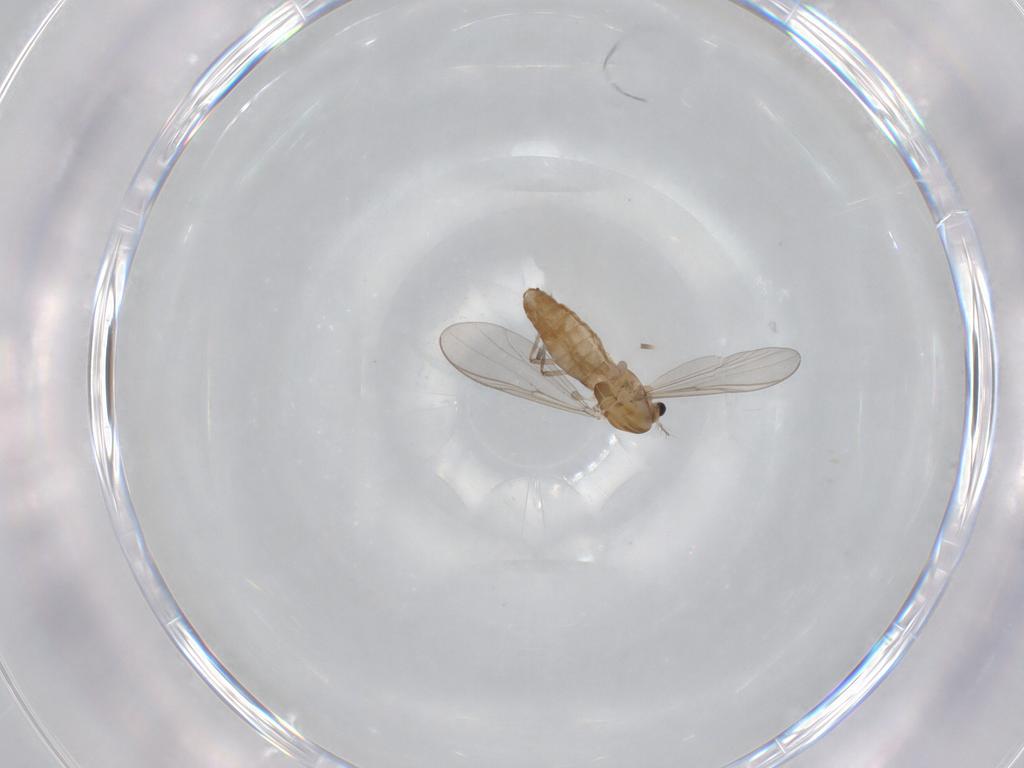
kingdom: Animalia
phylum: Arthropoda
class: Insecta
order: Diptera
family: Chironomidae
